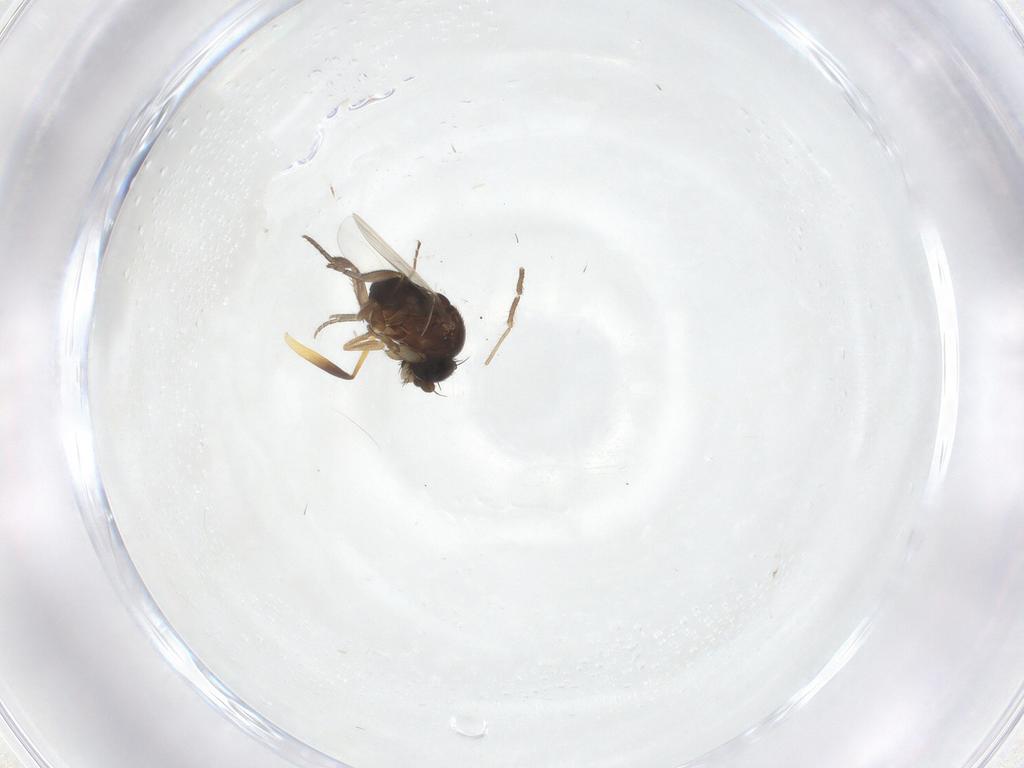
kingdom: Animalia
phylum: Arthropoda
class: Insecta
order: Diptera
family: Phoridae
